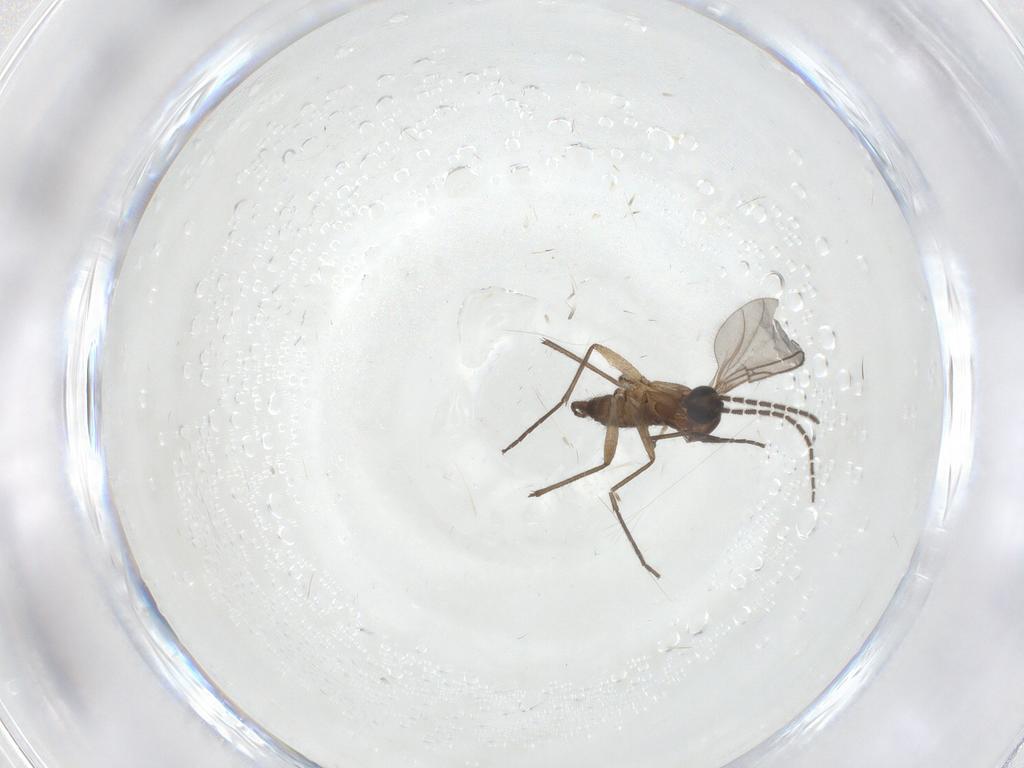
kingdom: Animalia
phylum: Arthropoda
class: Insecta
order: Diptera
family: Sciaridae
